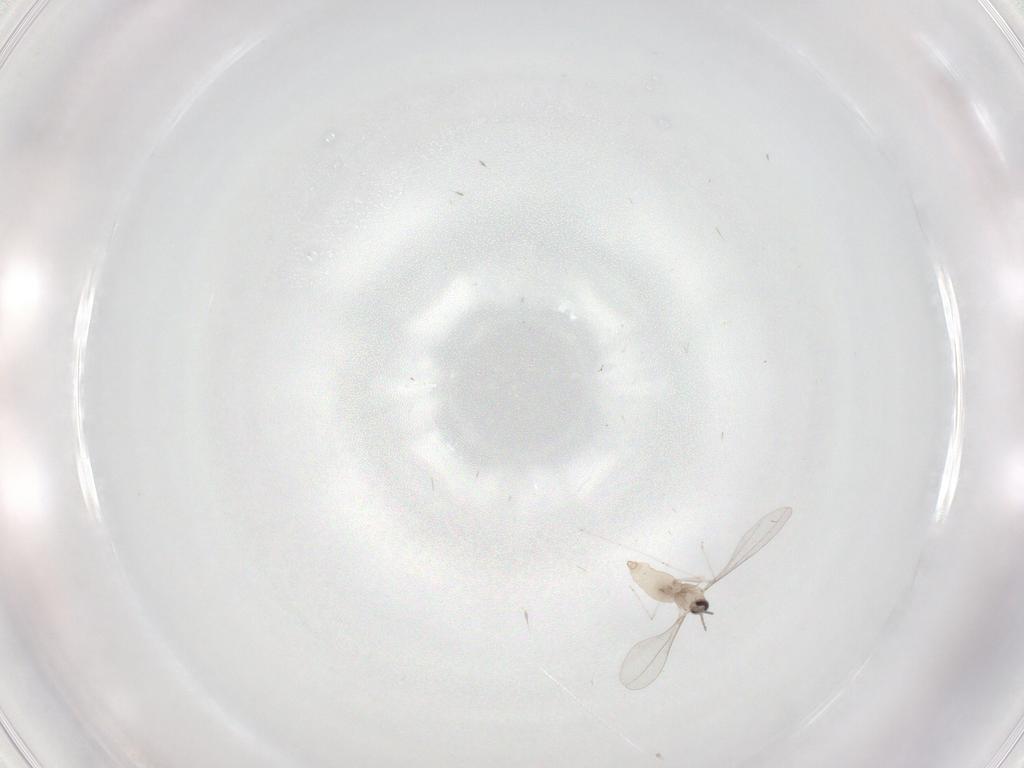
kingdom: Animalia
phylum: Arthropoda
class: Insecta
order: Diptera
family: Cecidomyiidae
